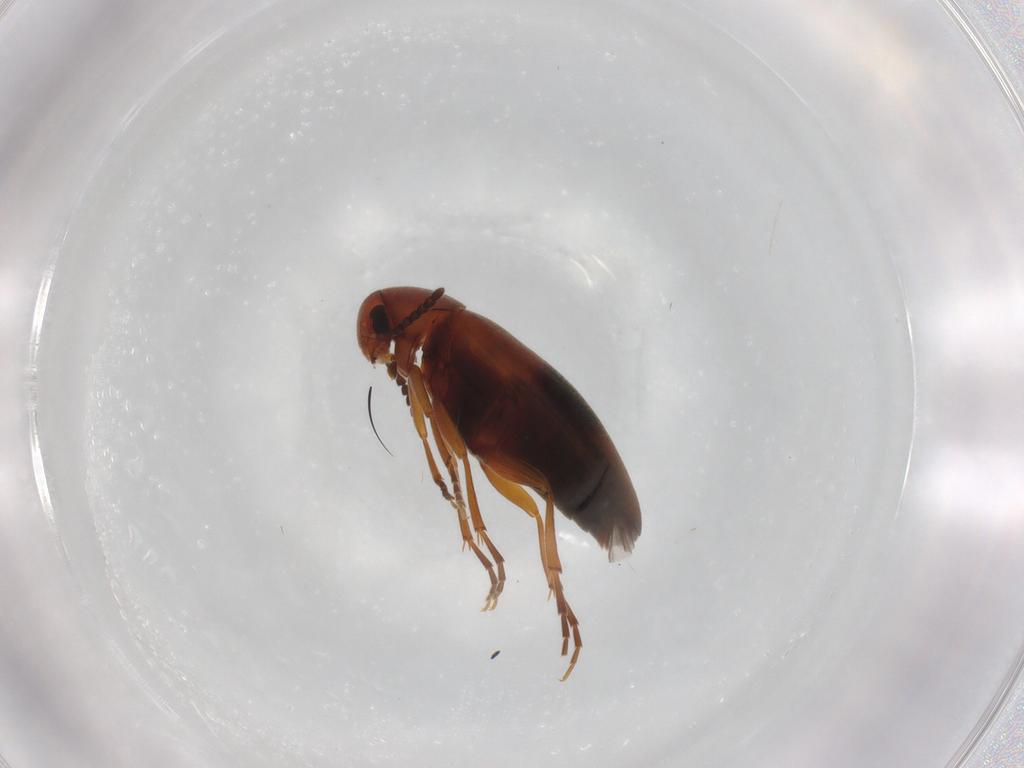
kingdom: Animalia
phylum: Arthropoda
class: Insecta
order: Coleoptera
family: Scraptiidae
